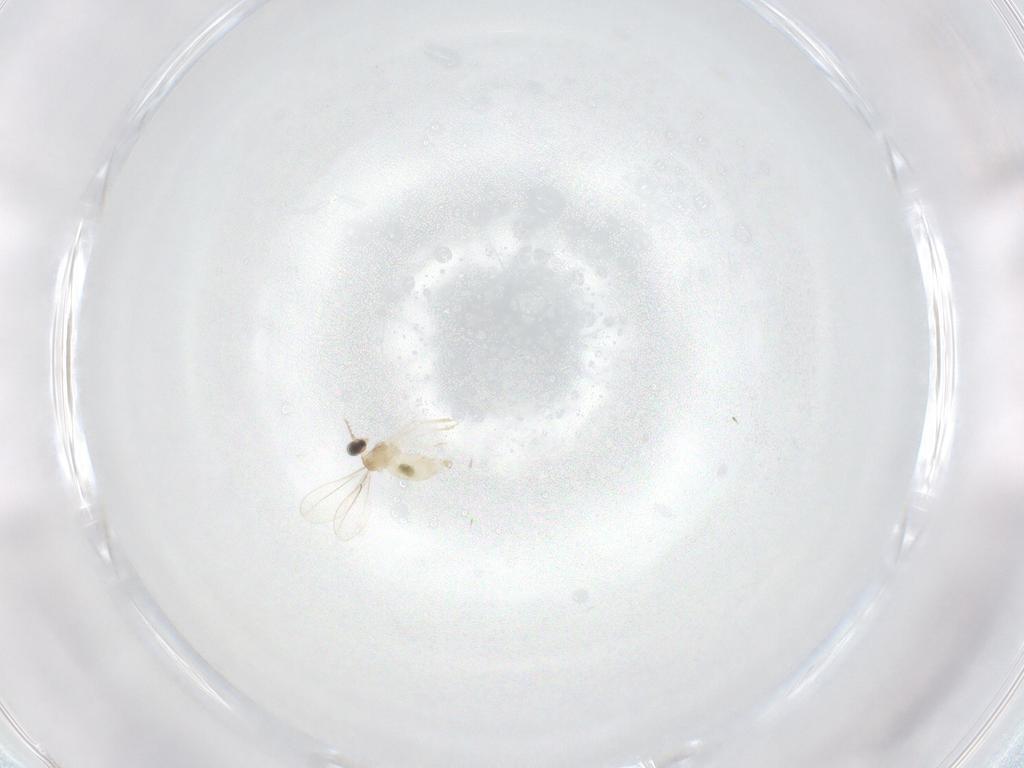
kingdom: Animalia
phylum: Arthropoda
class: Insecta
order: Diptera
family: Cecidomyiidae
